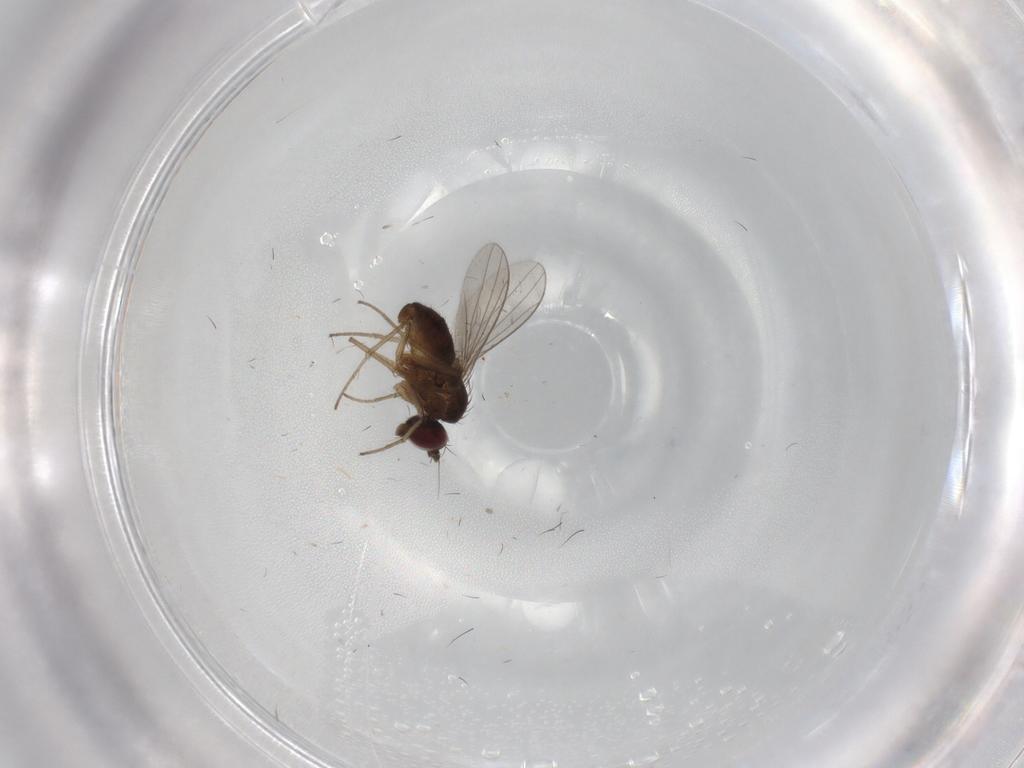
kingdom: Animalia
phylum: Arthropoda
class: Insecta
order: Diptera
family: Dolichopodidae
